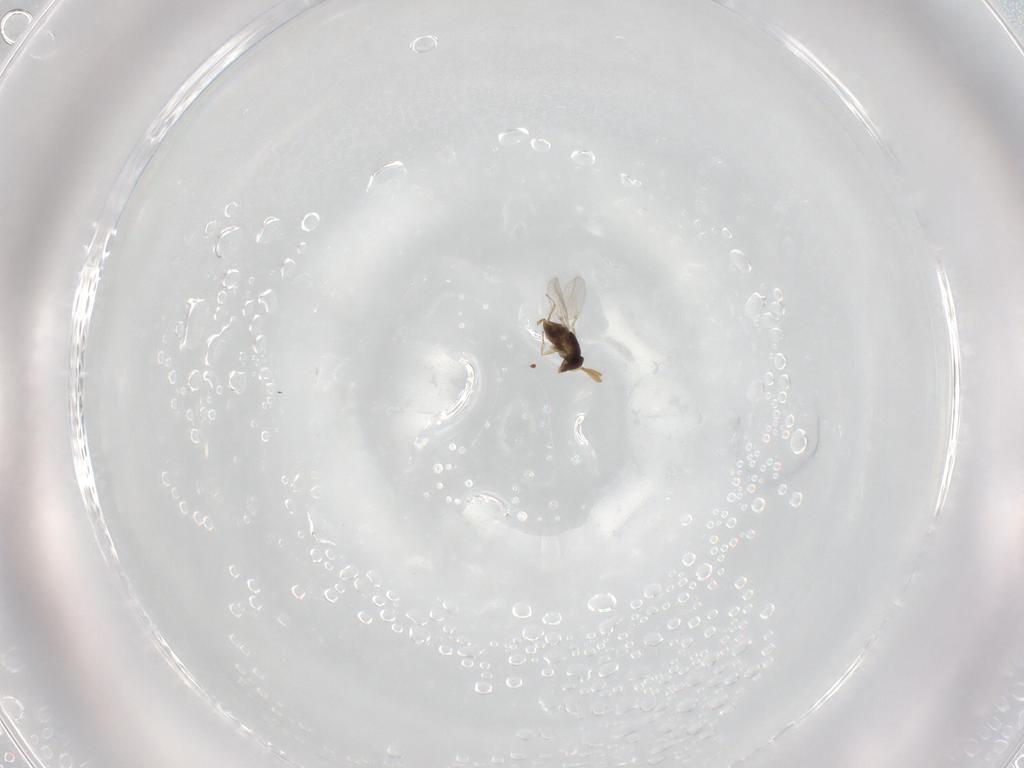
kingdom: Animalia
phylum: Arthropoda
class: Insecta
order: Hymenoptera
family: Encyrtidae
